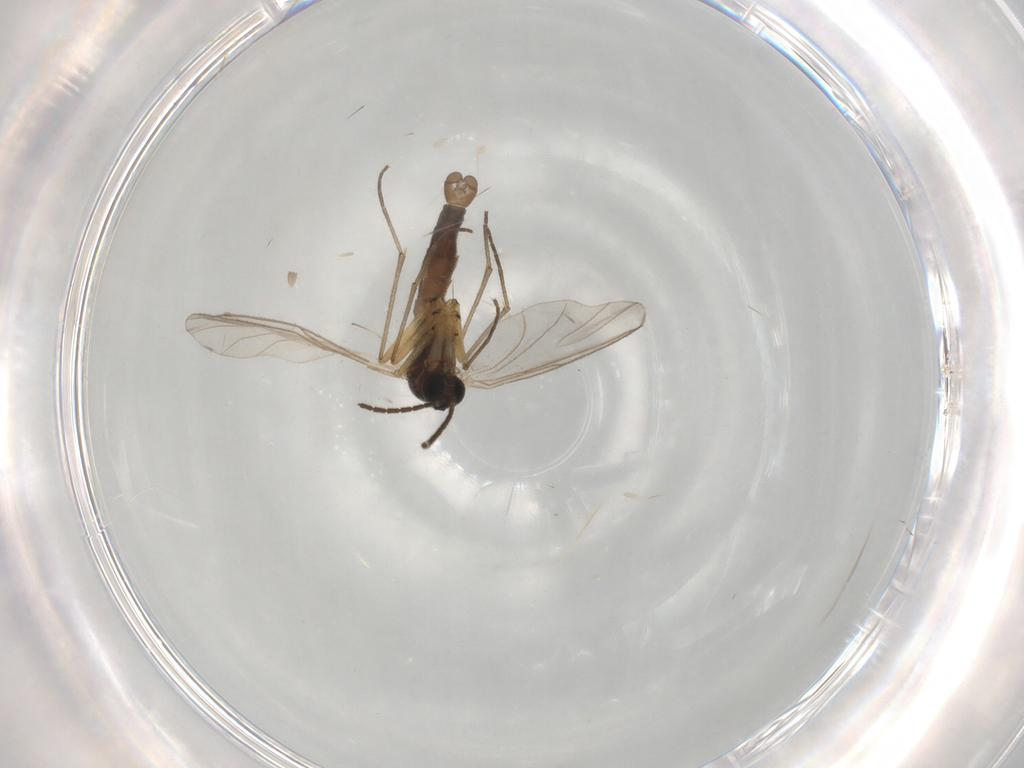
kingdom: Animalia
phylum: Arthropoda
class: Insecta
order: Diptera
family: Sciaridae
